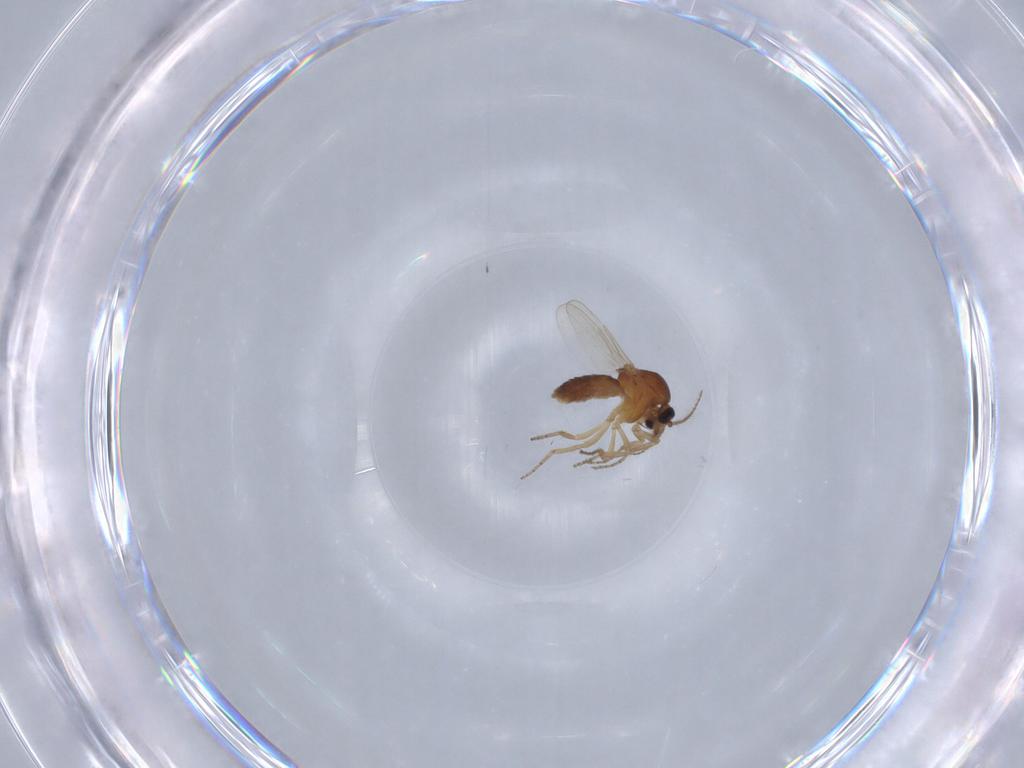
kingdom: Animalia
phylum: Arthropoda
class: Insecta
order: Diptera
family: Ceratopogonidae
